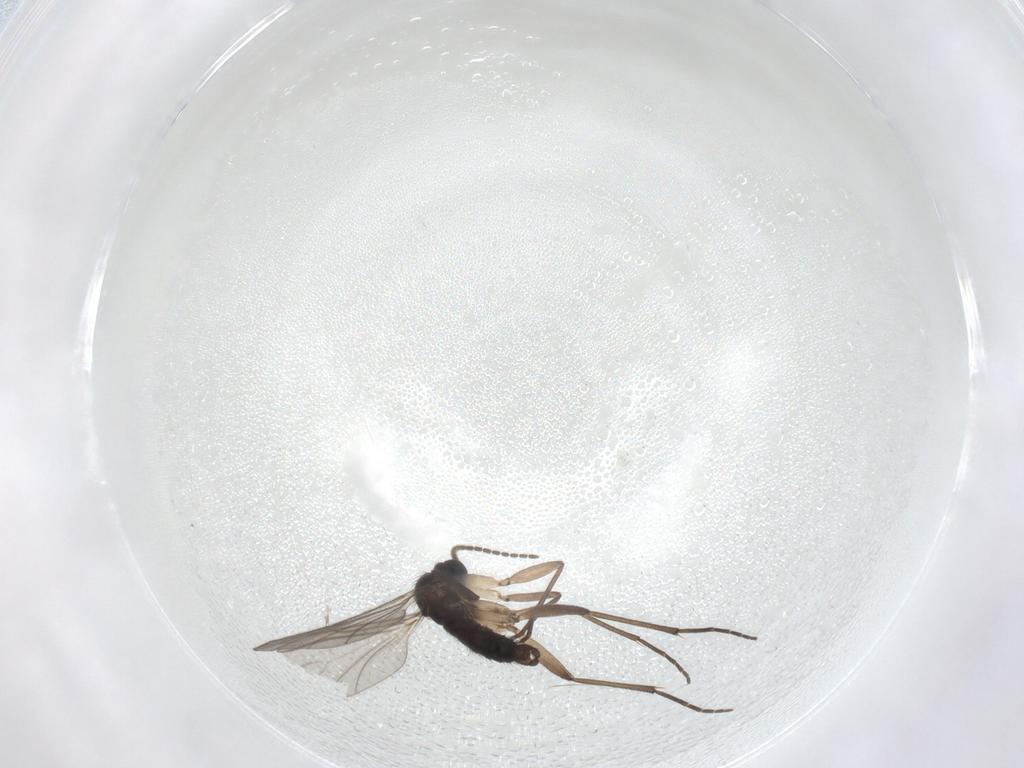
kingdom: Animalia
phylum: Arthropoda
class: Insecta
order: Diptera
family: Sciaridae
